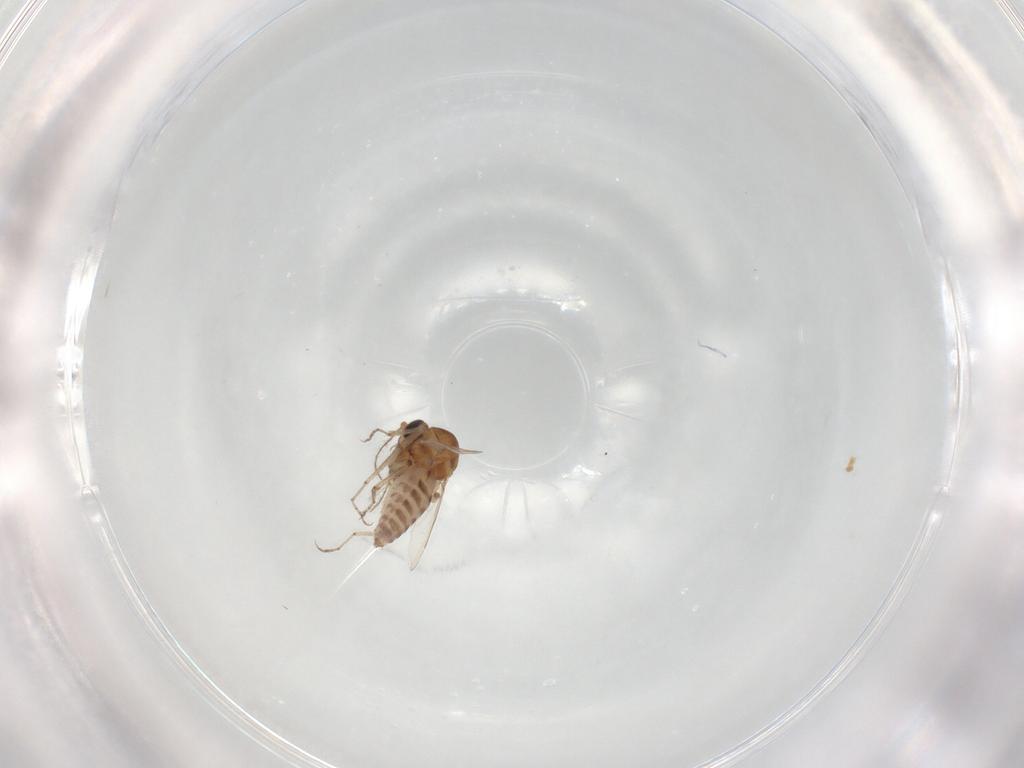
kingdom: Animalia
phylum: Arthropoda
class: Insecta
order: Diptera
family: Ceratopogonidae
